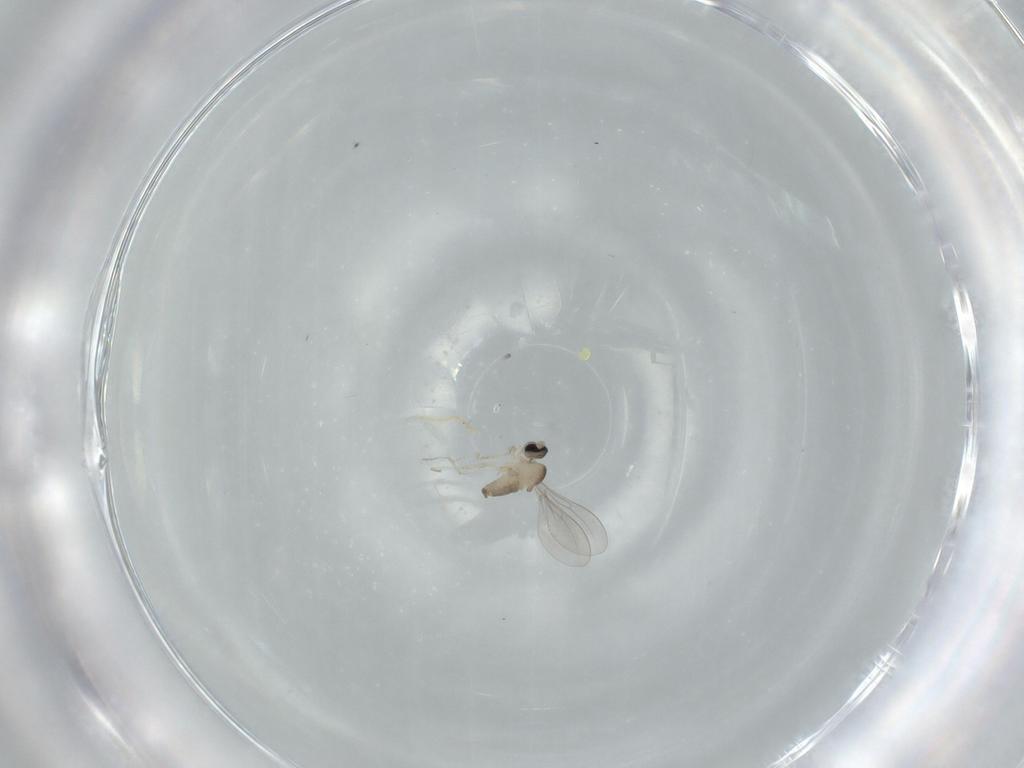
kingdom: Animalia
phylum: Arthropoda
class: Insecta
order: Diptera
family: Cecidomyiidae
